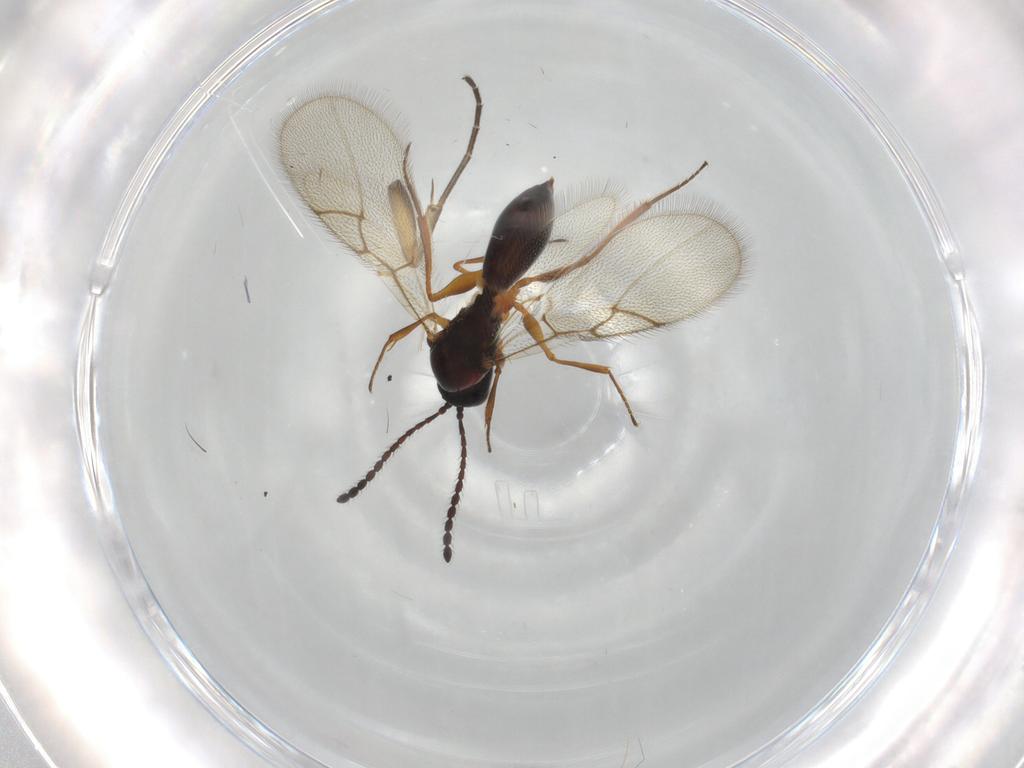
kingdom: Animalia
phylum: Arthropoda
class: Insecta
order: Hymenoptera
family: Figitidae
